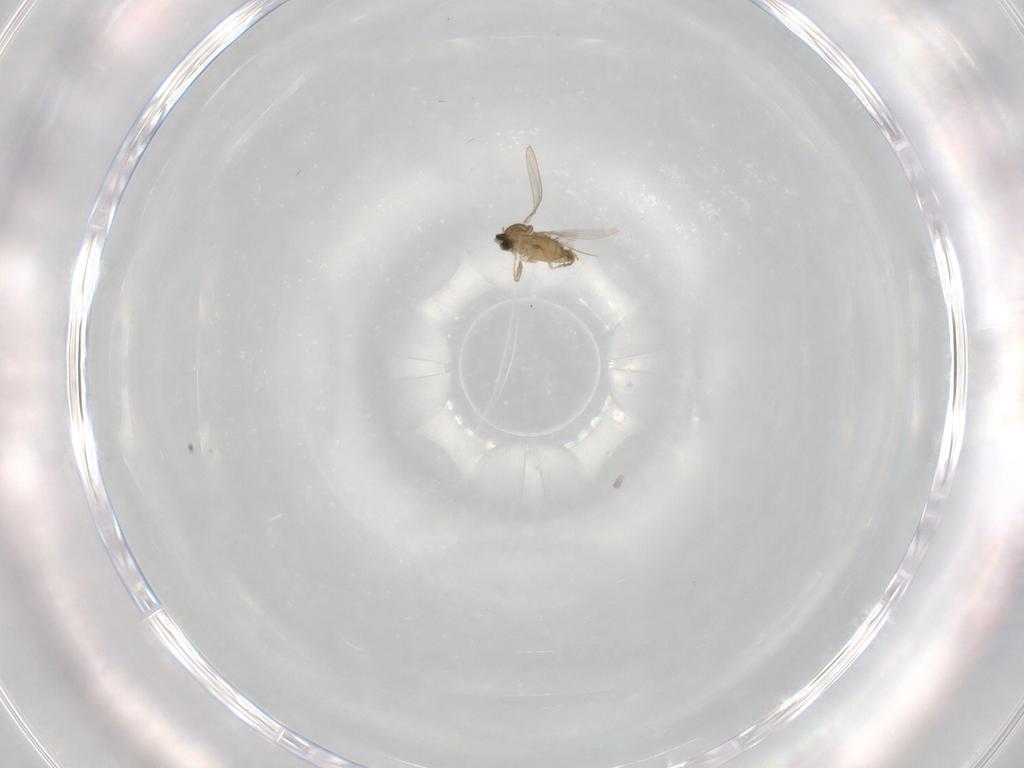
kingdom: Animalia
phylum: Arthropoda
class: Insecta
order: Diptera
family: Cecidomyiidae
